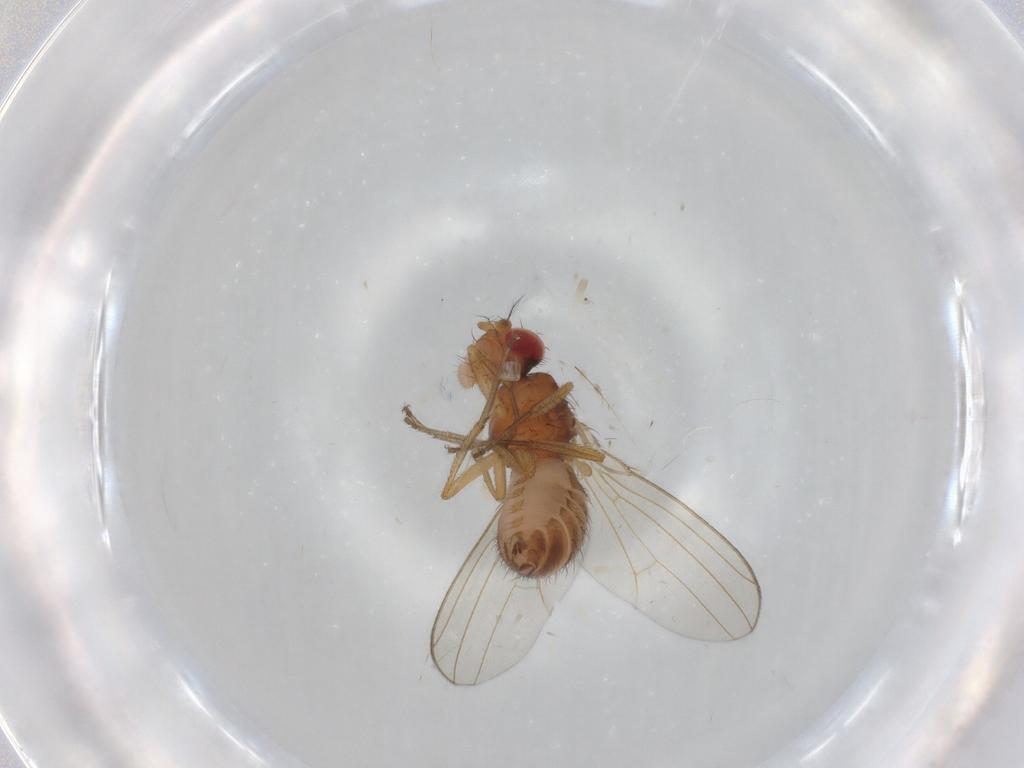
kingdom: Animalia
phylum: Arthropoda
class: Insecta
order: Diptera
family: Drosophilidae
